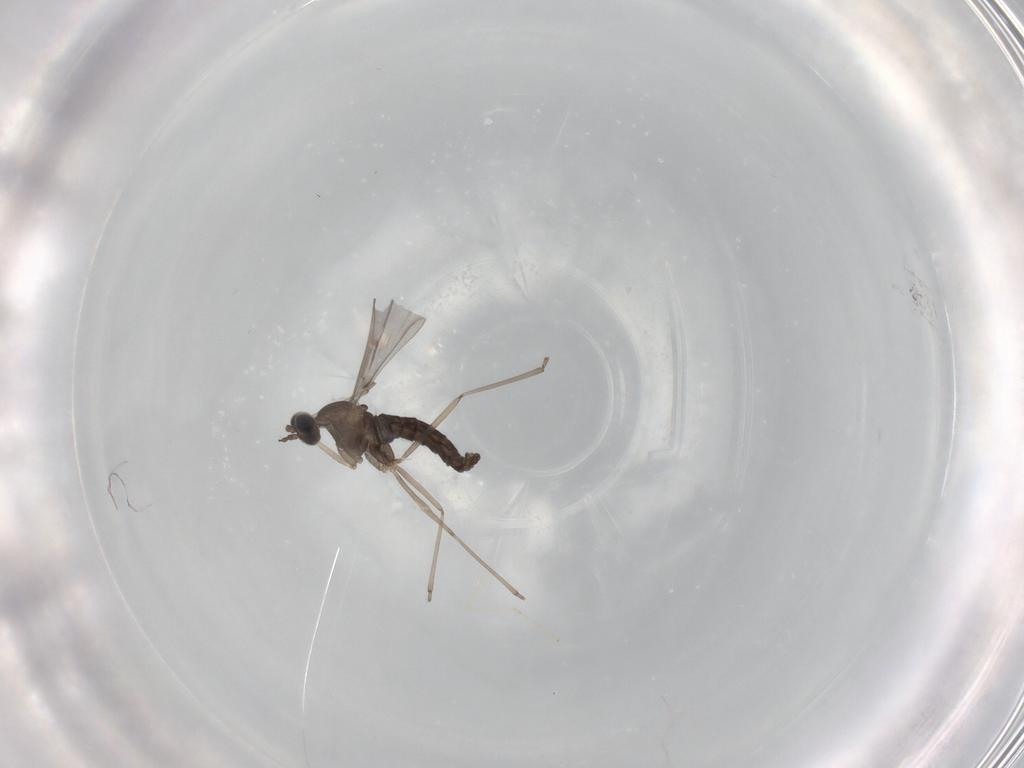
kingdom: Animalia
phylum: Arthropoda
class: Insecta
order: Diptera
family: Cecidomyiidae
